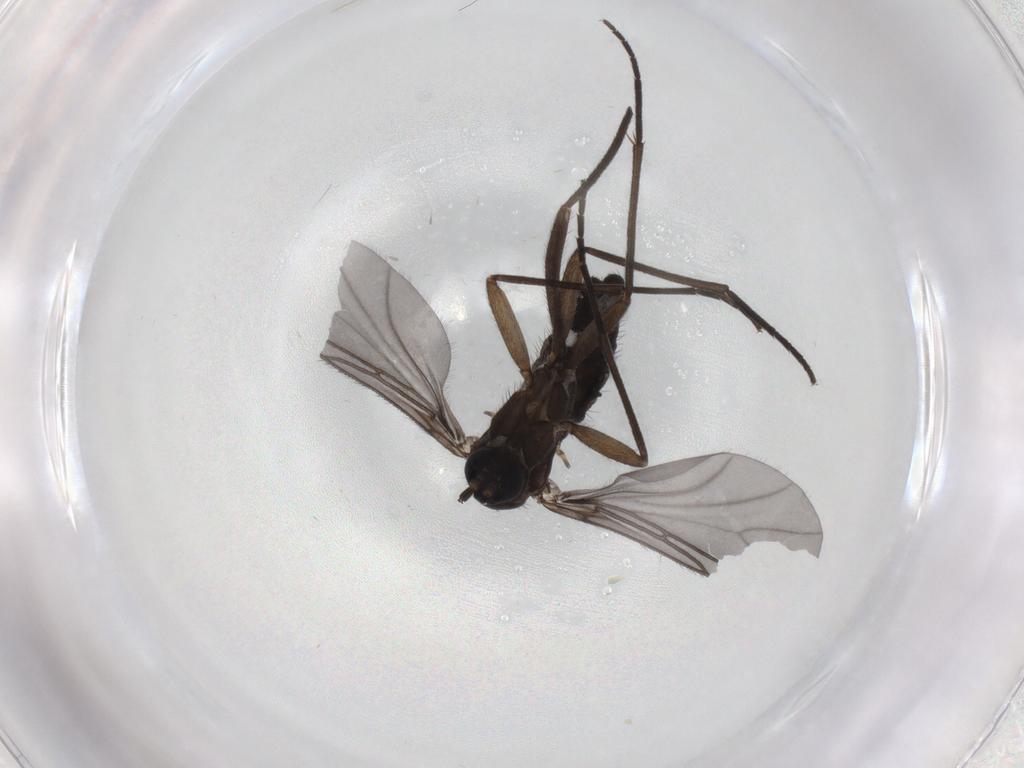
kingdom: Animalia
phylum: Arthropoda
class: Insecta
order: Diptera
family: Sciaridae
